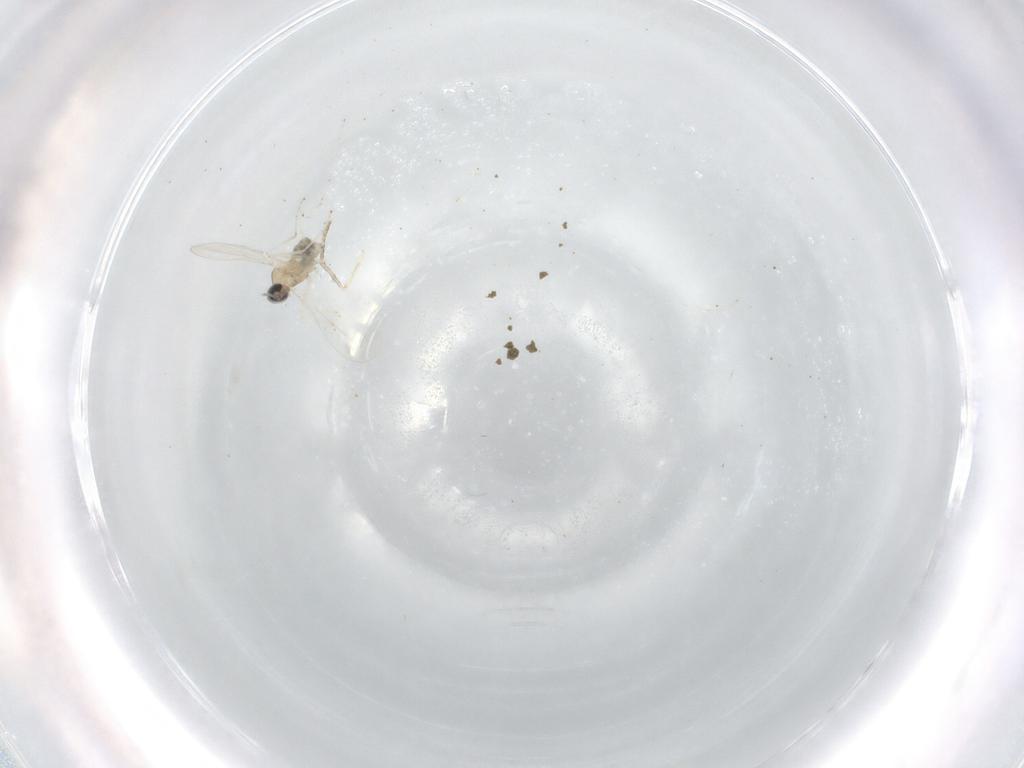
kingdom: Animalia
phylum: Arthropoda
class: Insecta
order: Diptera
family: Cecidomyiidae
